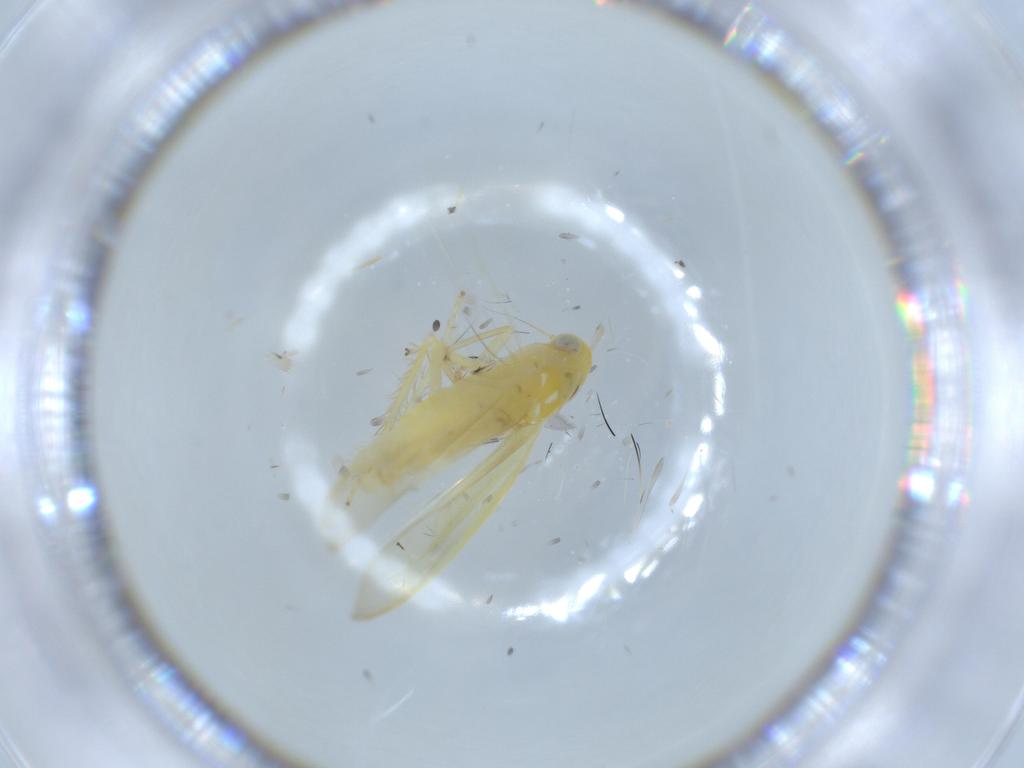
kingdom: Animalia
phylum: Arthropoda
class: Insecta
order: Hemiptera
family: Cicadellidae
